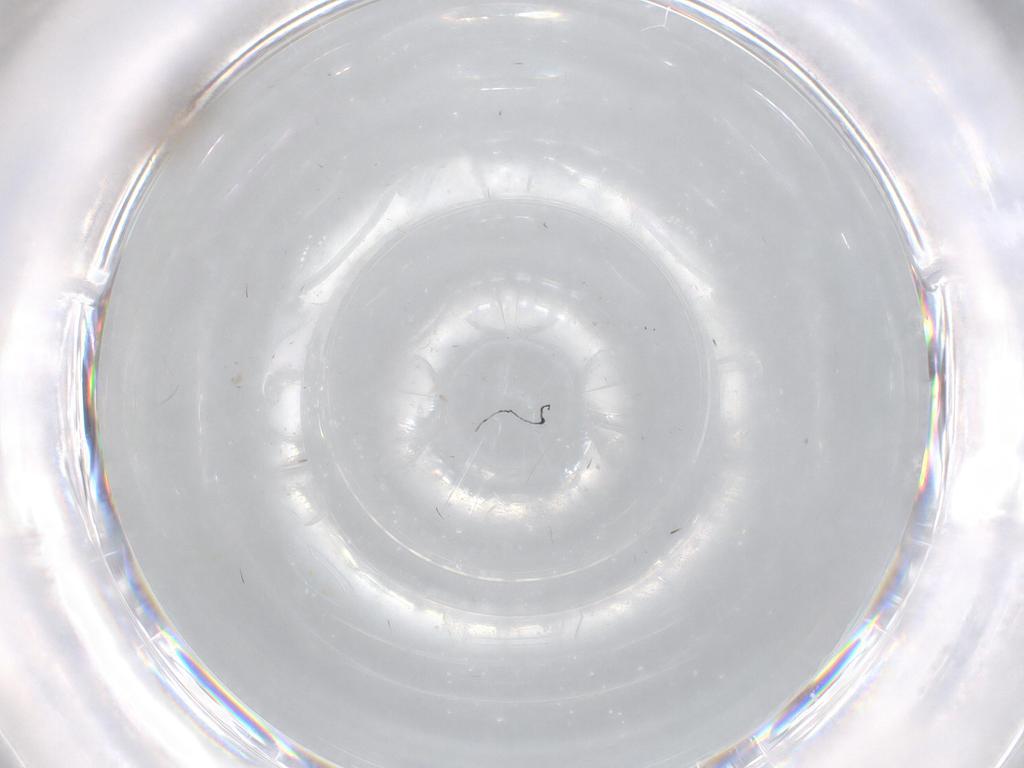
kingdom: Animalia
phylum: Arthropoda
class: Insecta
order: Diptera
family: Limoniidae
